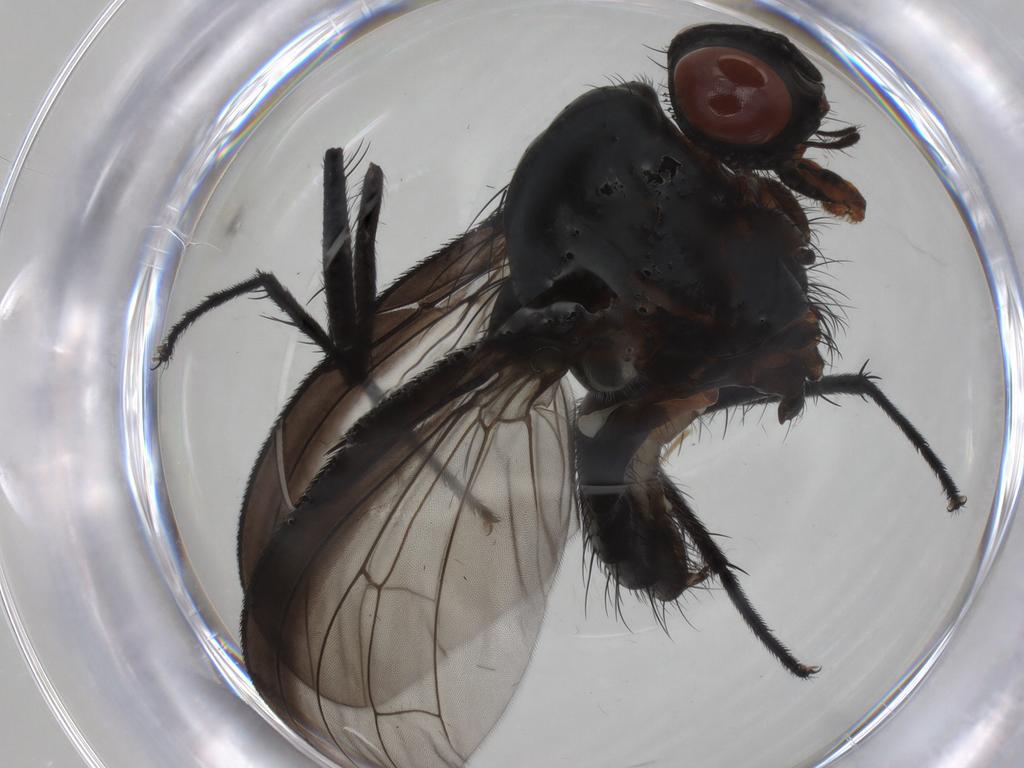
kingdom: Animalia
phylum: Arthropoda
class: Insecta
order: Diptera
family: Anthomyiidae
